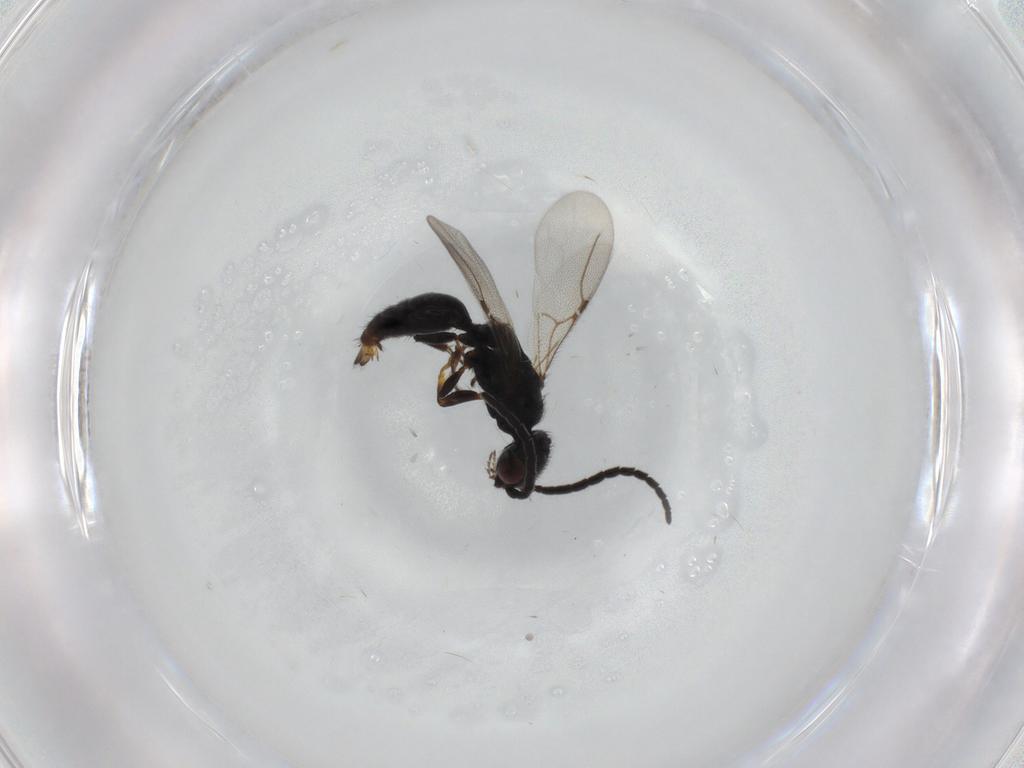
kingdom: Animalia
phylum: Arthropoda
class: Insecta
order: Hymenoptera
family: Bethylidae
